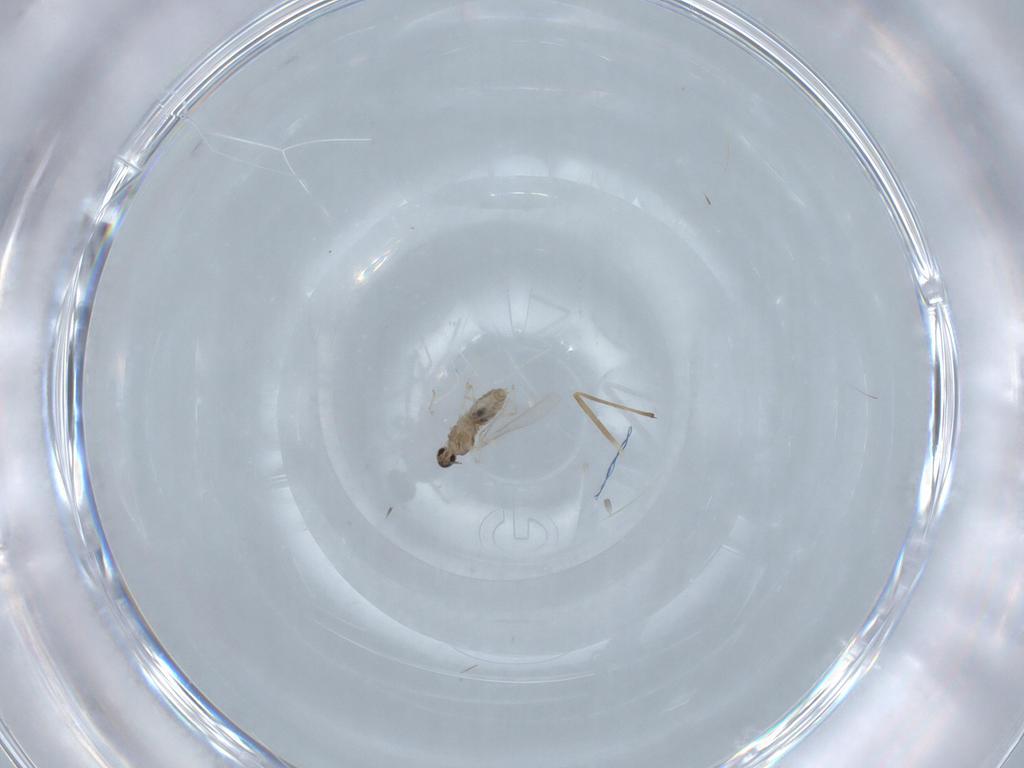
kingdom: Animalia
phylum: Arthropoda
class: Insecta
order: Diptera
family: Cecidomyiidae
